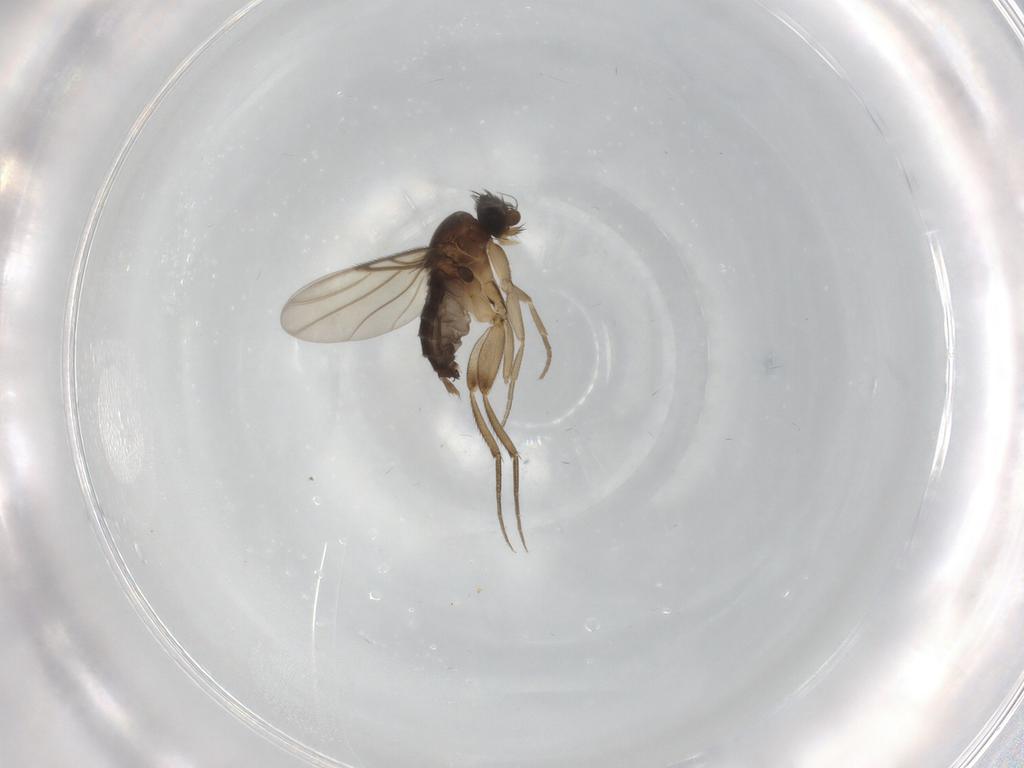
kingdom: Animalia
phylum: Arthropoda
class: Insecta
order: Diptera
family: Phoridae
